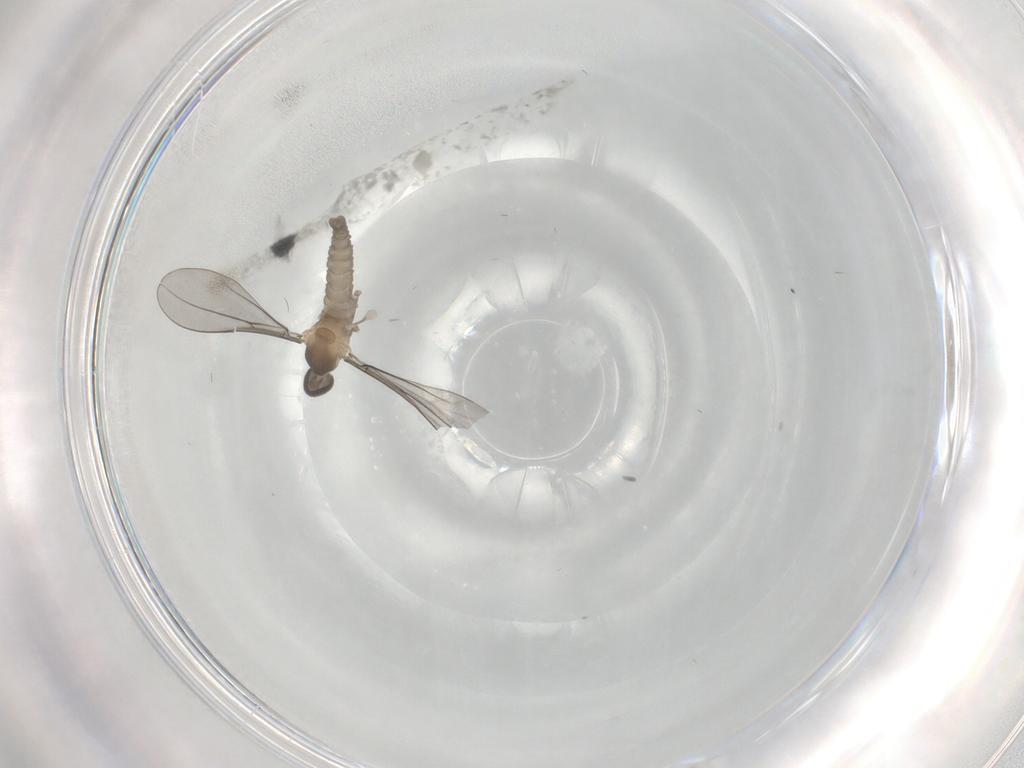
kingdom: Animalia
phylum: Arthropoda
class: Insecta
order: Diptera
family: Cecidomyiidae
